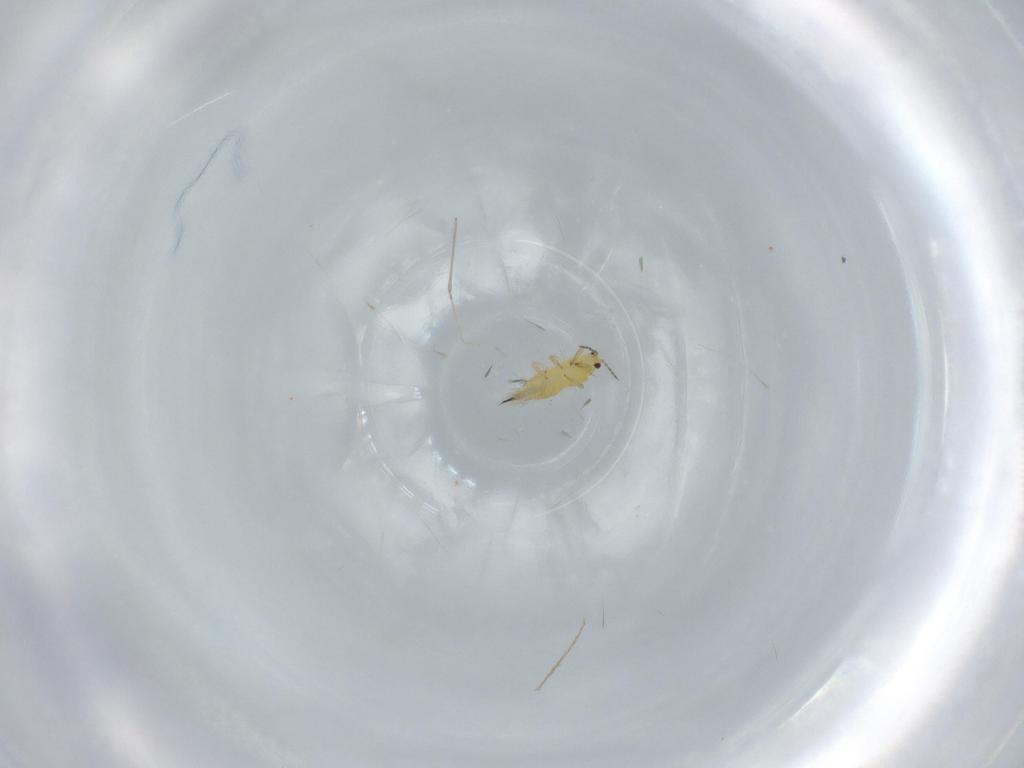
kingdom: Animalia
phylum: Arthropoda
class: Insecta
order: Thysanoptera
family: Thripidae
